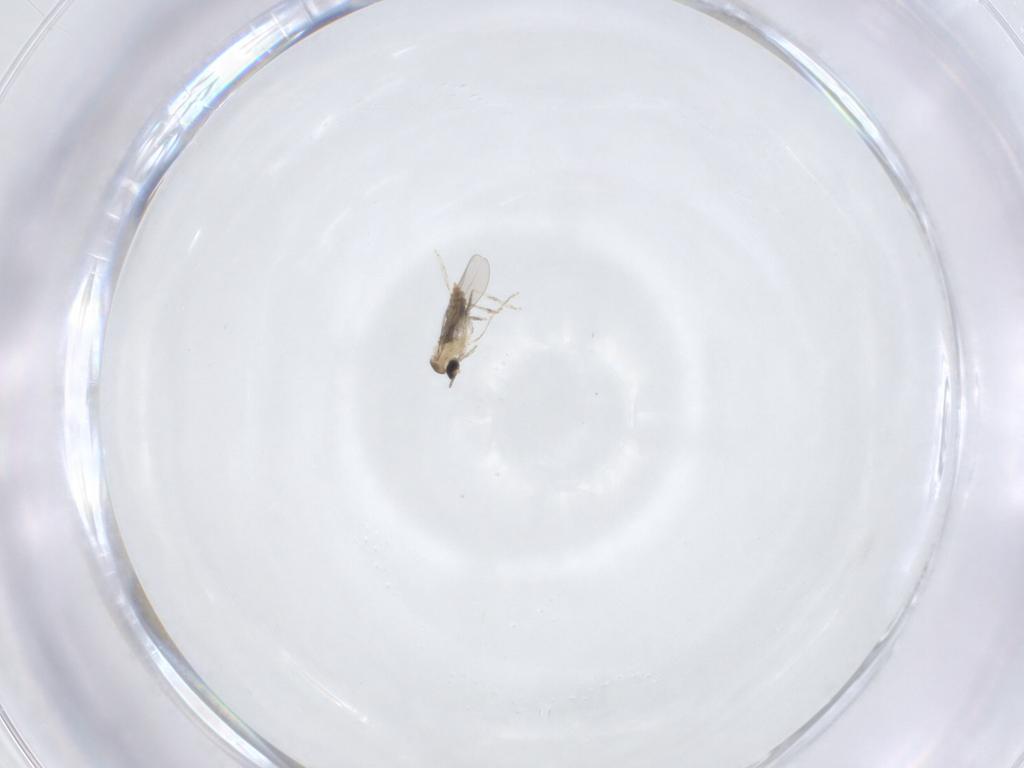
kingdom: Animalia
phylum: Arthropoda
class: Insecta
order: Diptera
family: Cecidomyiidae
